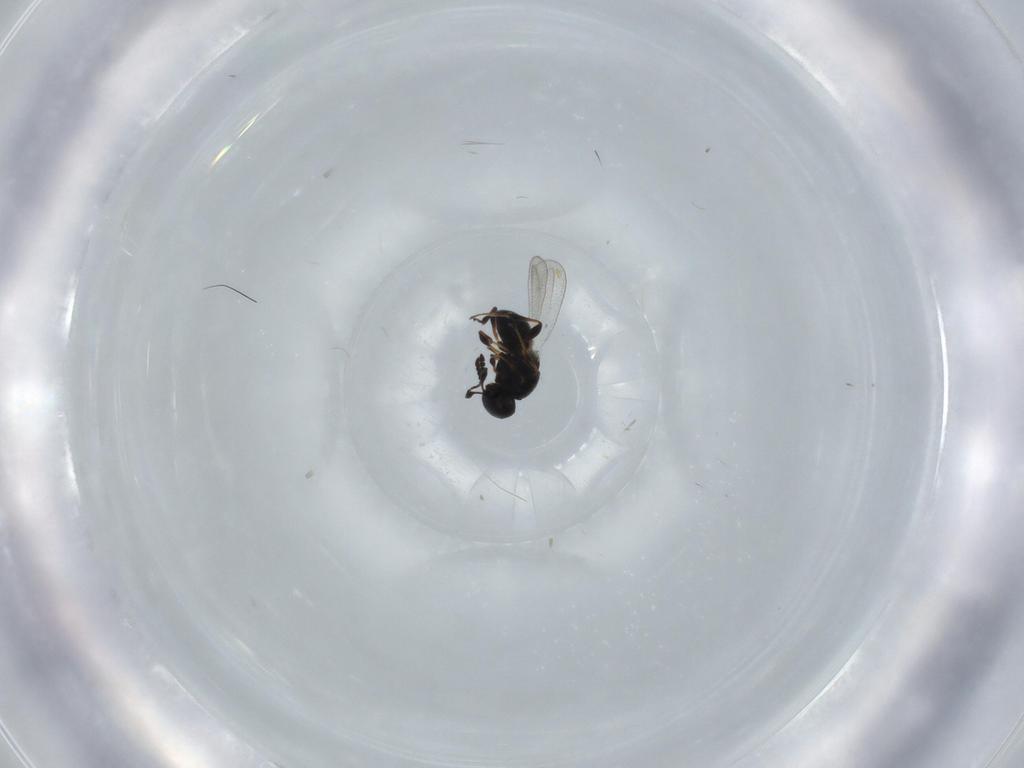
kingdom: Animalia
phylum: Arthropoda
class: Insecta
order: Hymenoptera
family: Platygastridae
